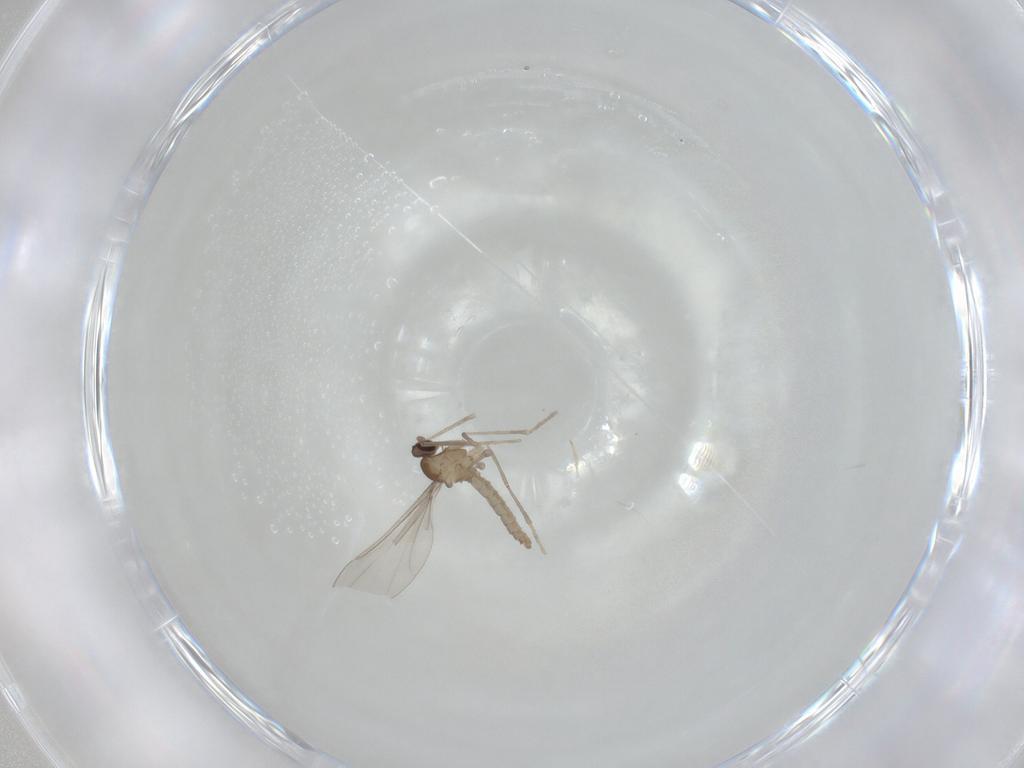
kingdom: Animalia
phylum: Arthropoda
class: Insecta
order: Diptera
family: Cecidomyiidae
